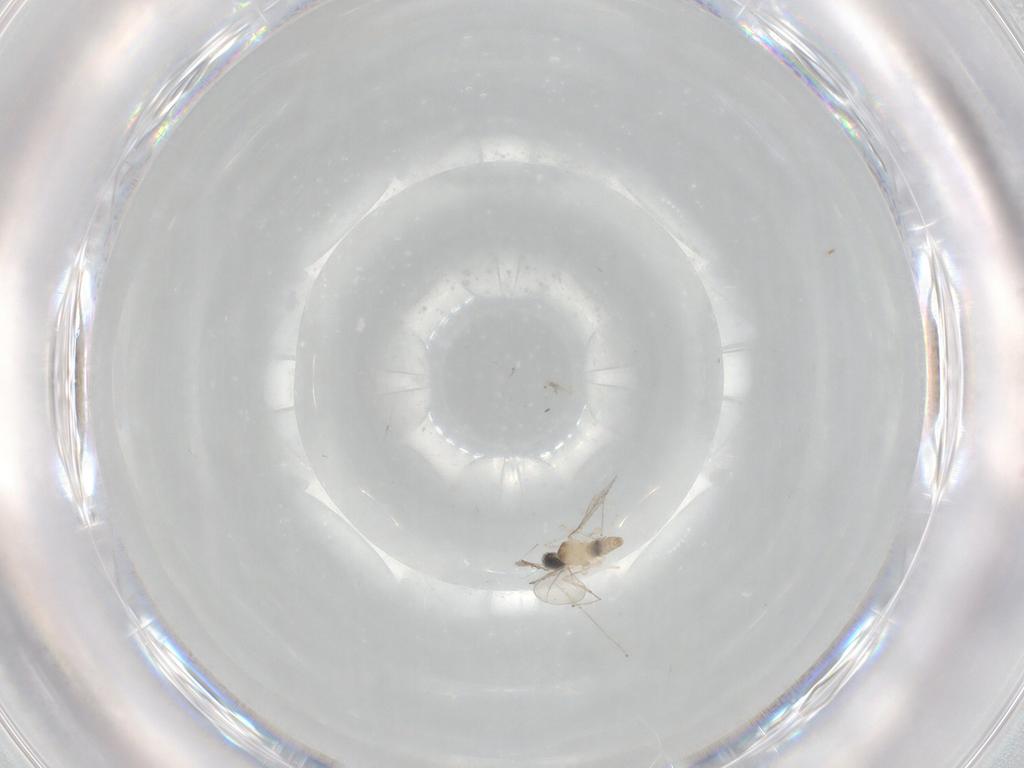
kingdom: Animalia
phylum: Arthropoda
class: Insecta
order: Diptera
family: Cecidomyiidae
